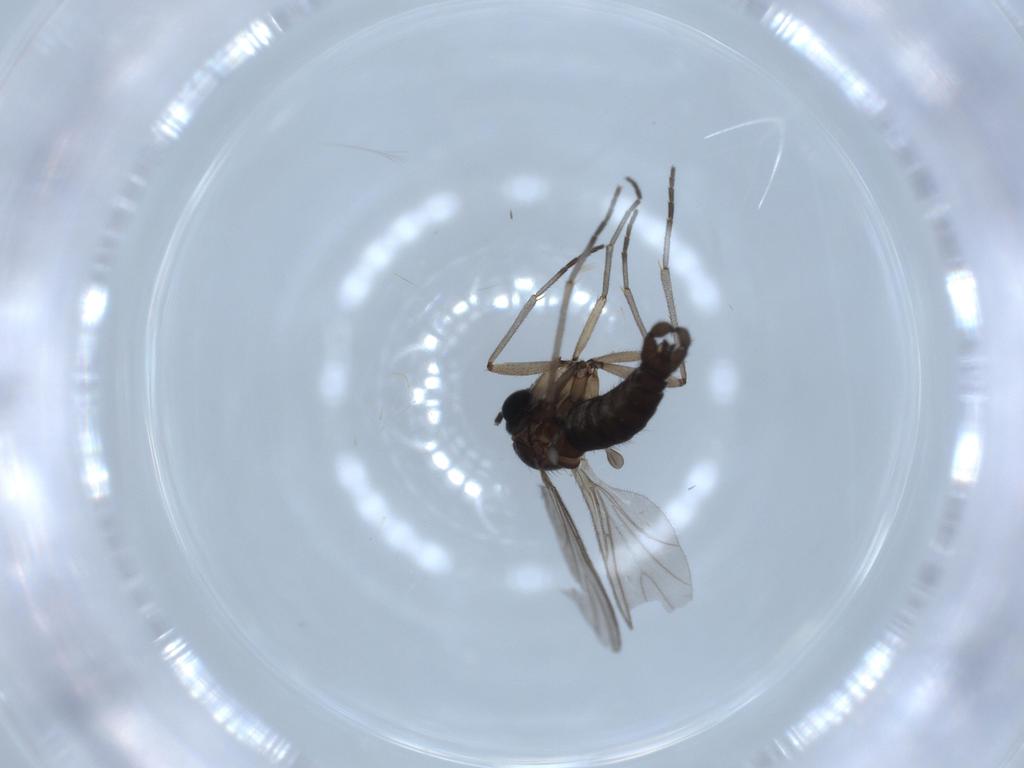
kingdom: Animalia
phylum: Arthropoda
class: Insecta
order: Diptera
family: Sciaridae
